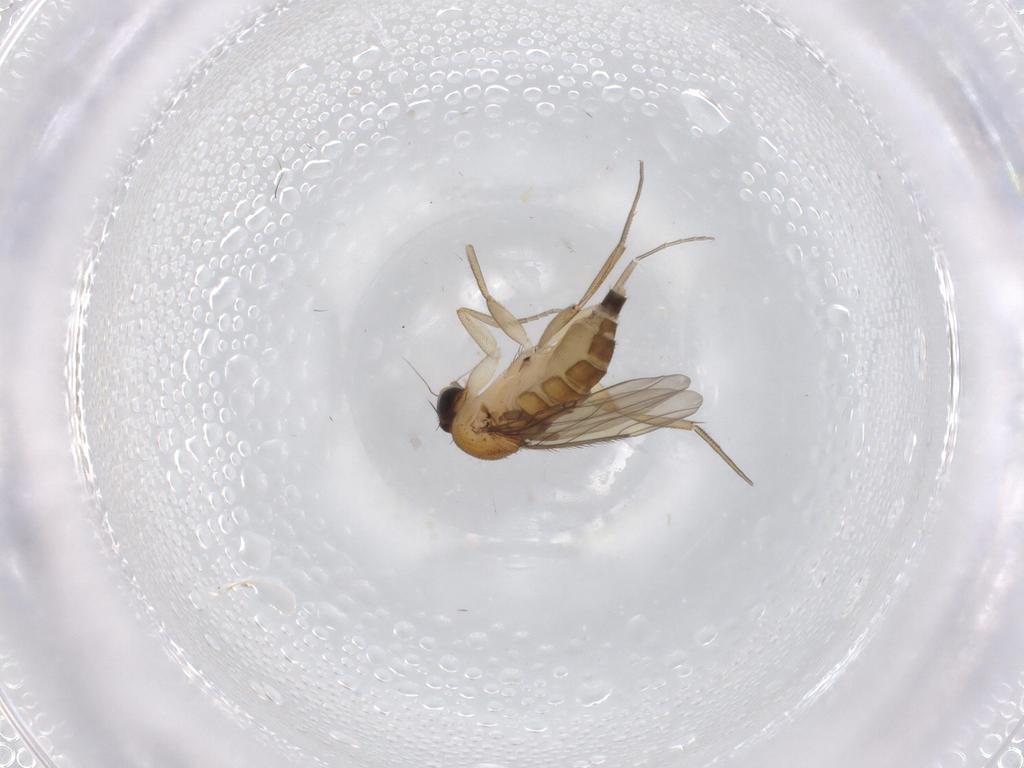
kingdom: Animalia
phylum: Arthropoda
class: Insecta
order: Diptera
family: Phoridae
